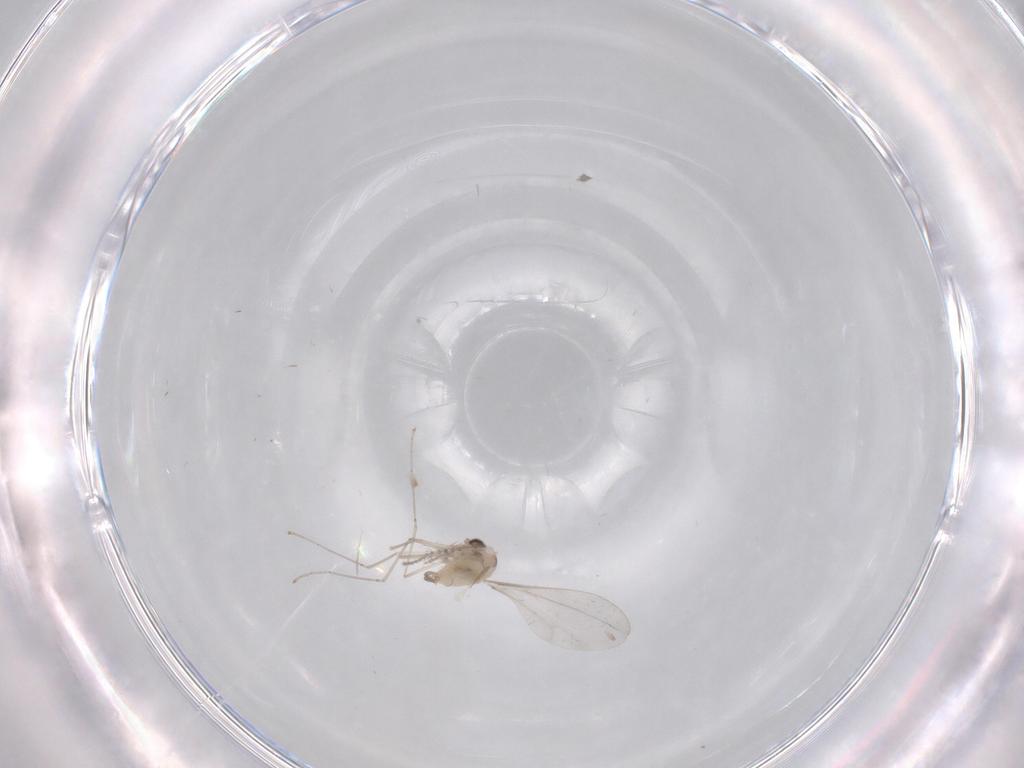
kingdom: Animalia
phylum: Arthropoda
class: Insecta
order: Diptera
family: Cecidomyiidae
